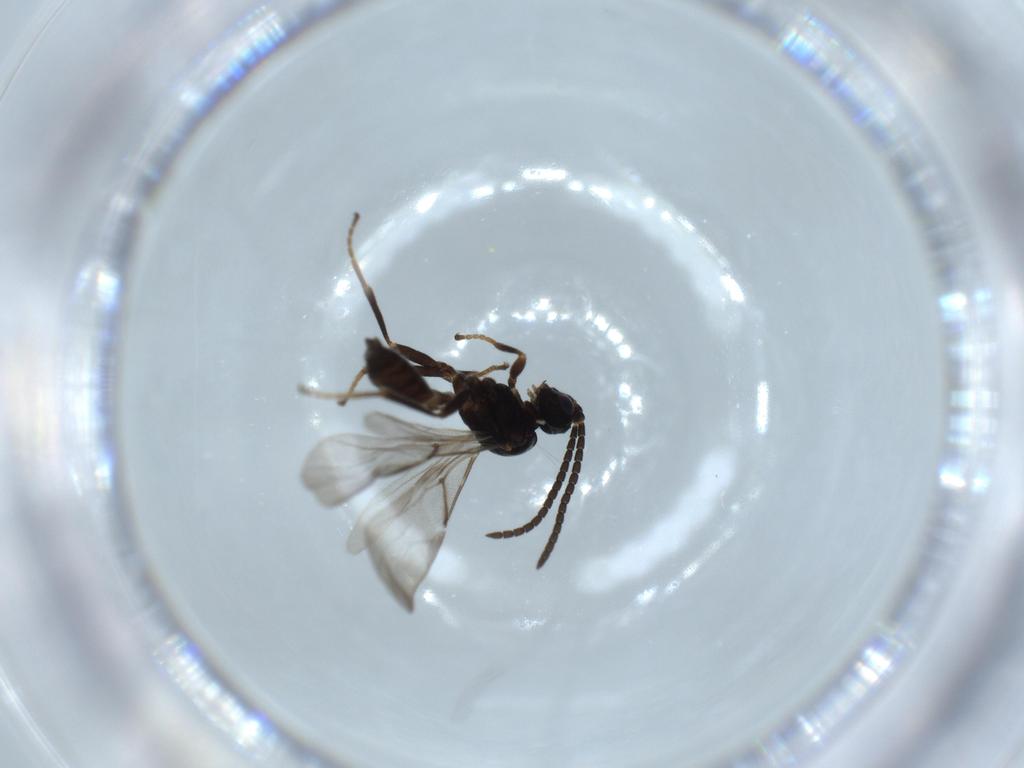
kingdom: Animalia
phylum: Arthropoda
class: Insecta
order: Hymenoptera
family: Braconidae
